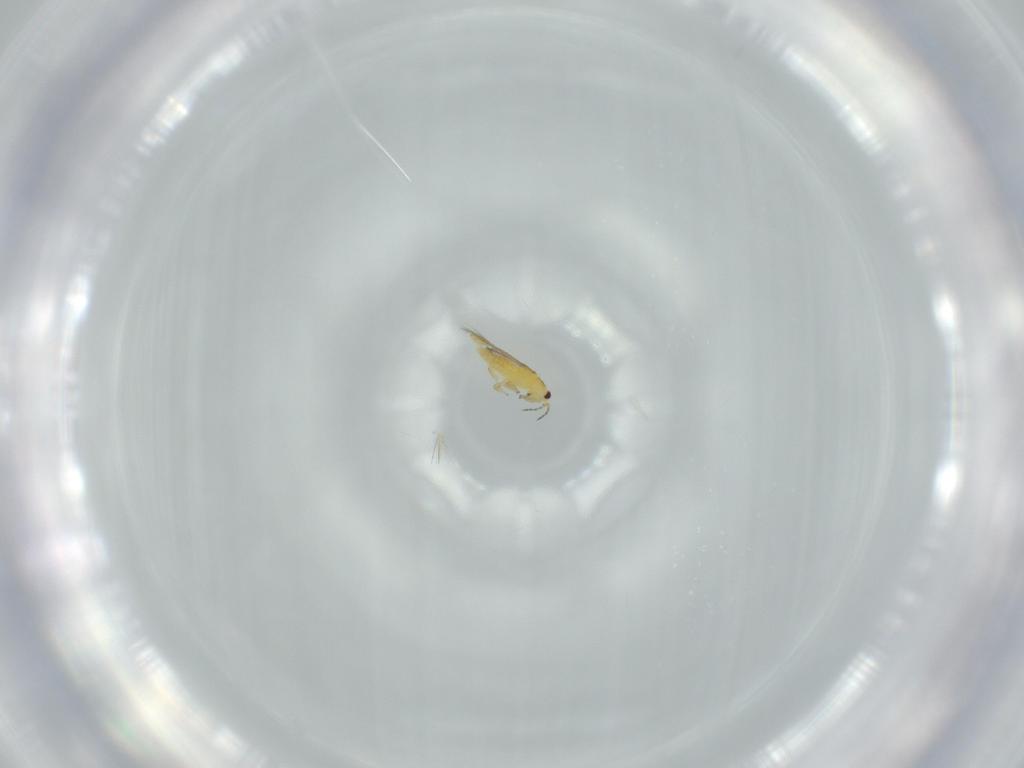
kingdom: Animalia
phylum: Arthropoda
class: Insecta
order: Thysanoptera
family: Thripidae
